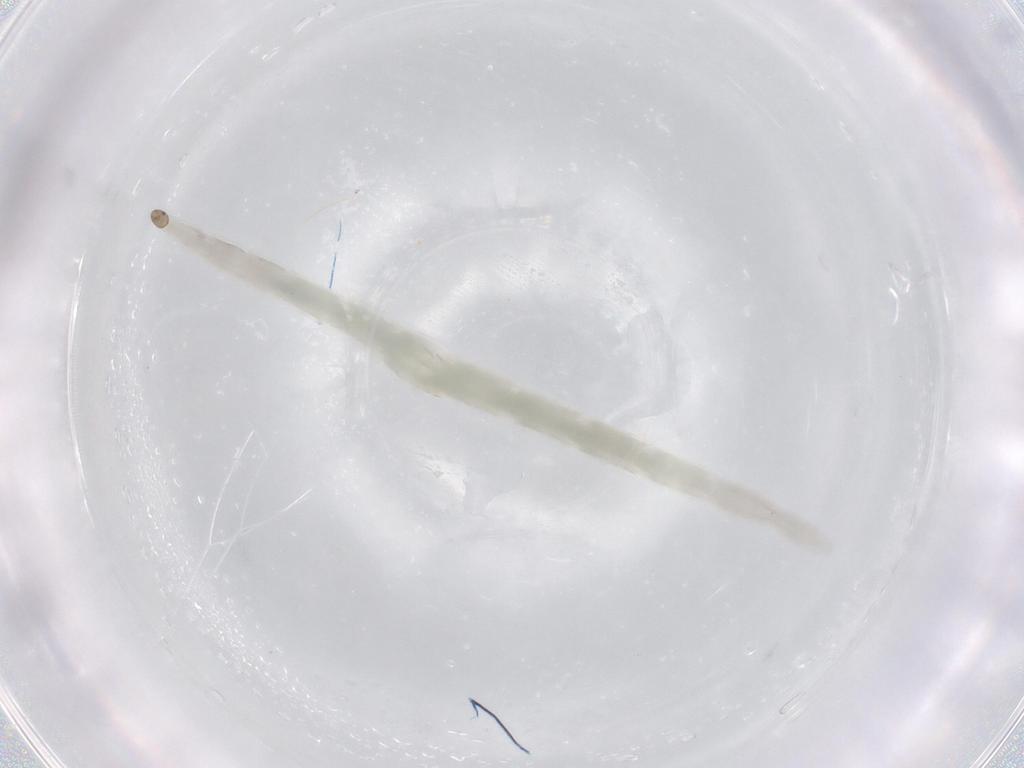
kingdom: Animalia
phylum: Arthropoda
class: Insecta
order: Diptera
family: Ceratopogonidae
